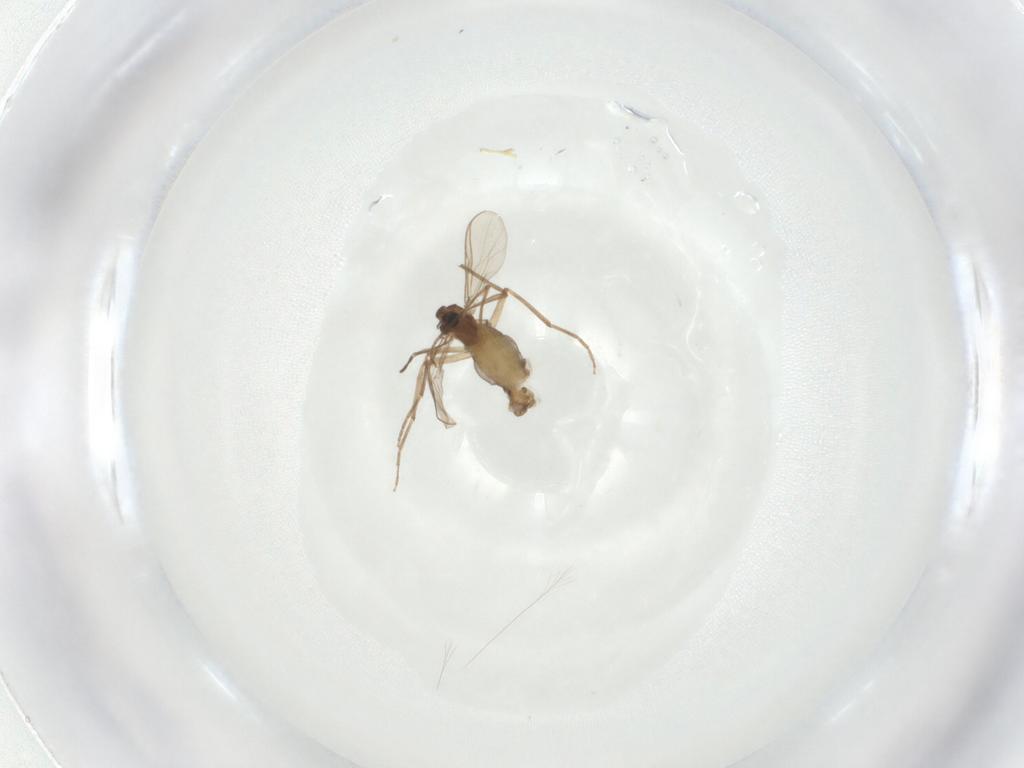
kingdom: Animalia
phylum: Arthropoda
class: Insecta
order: Diptera
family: Chironomidae
